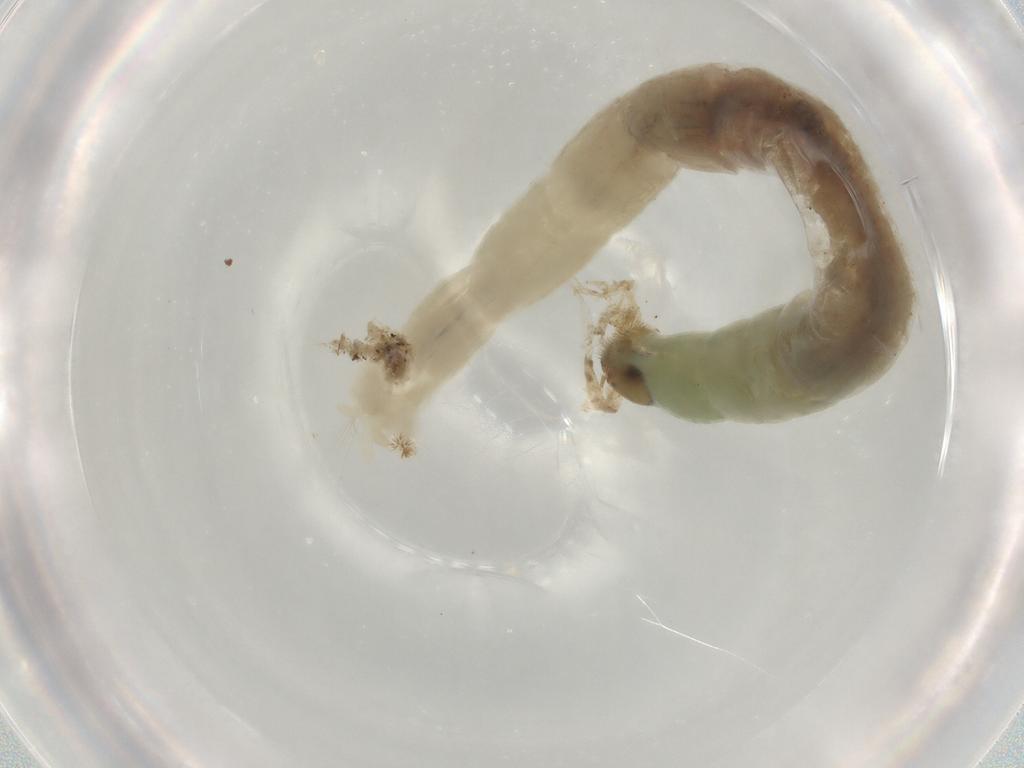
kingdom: Animalia
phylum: Arthropoda
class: Insecta
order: Diptera
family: Chironomidae
